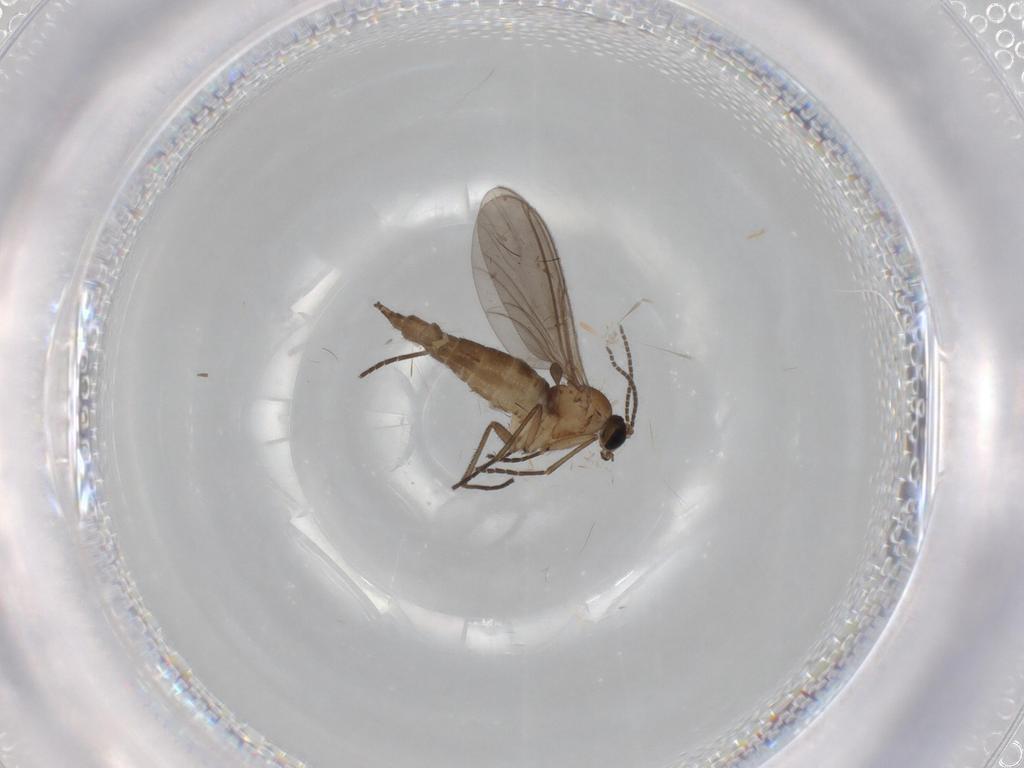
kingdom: Animalia
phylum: Arthropoda
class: Insecta
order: Diptera
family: Sciaridae
